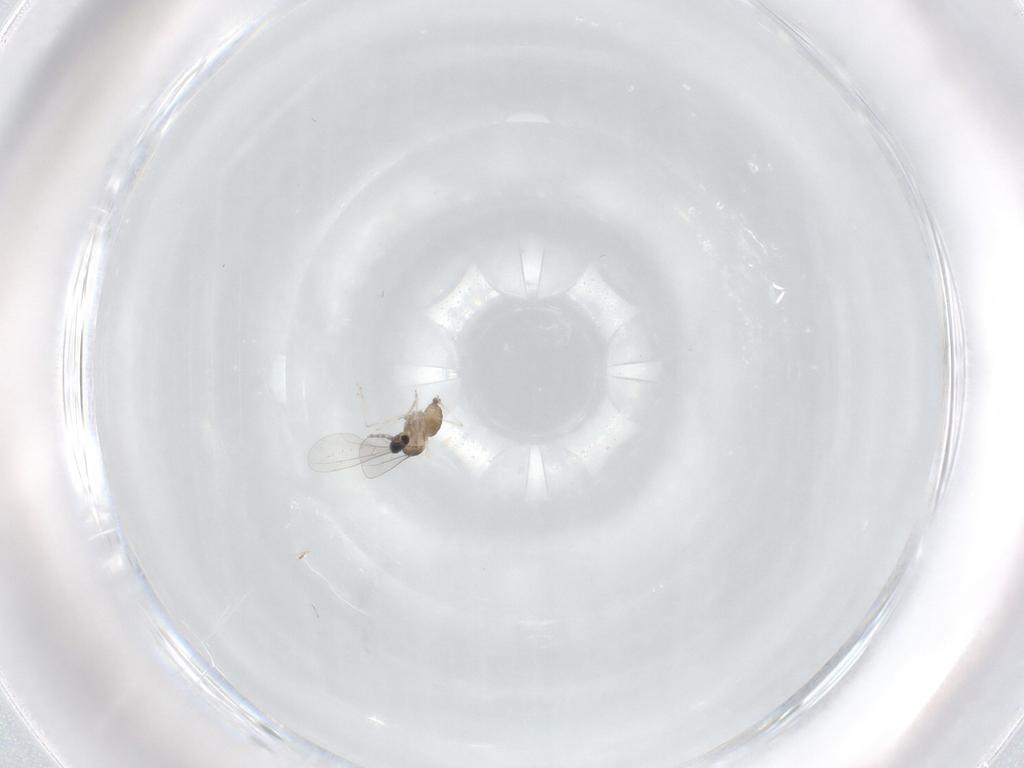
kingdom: Animalia
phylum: Arthropoda
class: Insecta
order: Diptera
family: Cecidomyiidae
